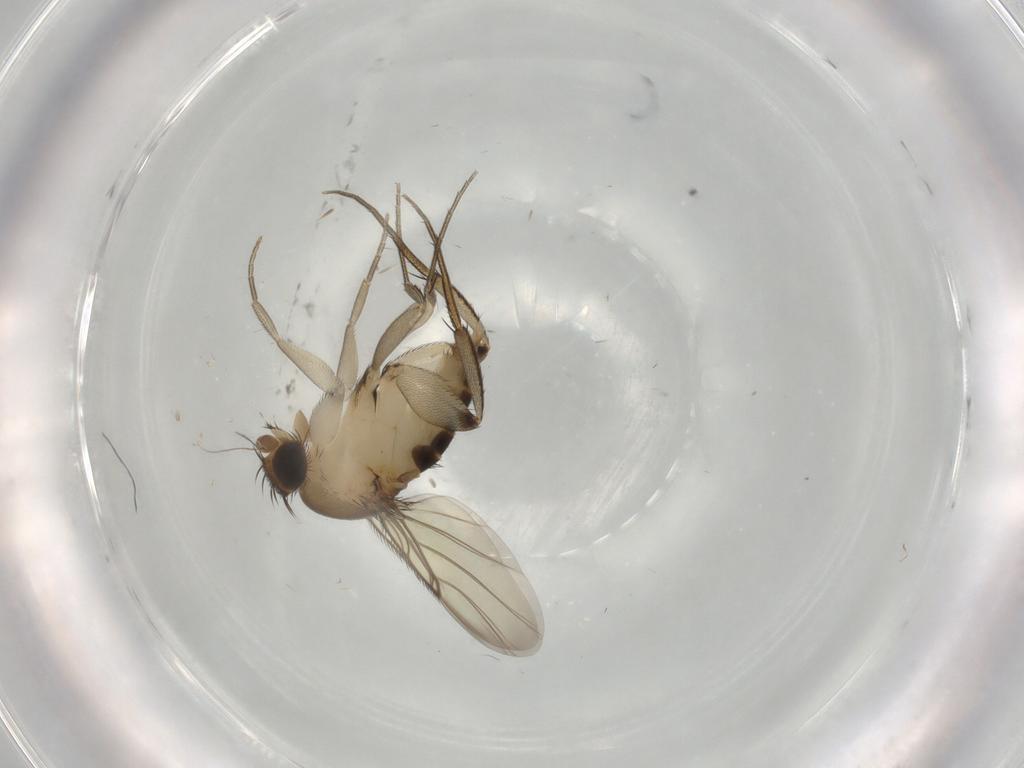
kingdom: Animalia
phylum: Arthropoda
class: Insecta
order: Diptera
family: Phoridae
